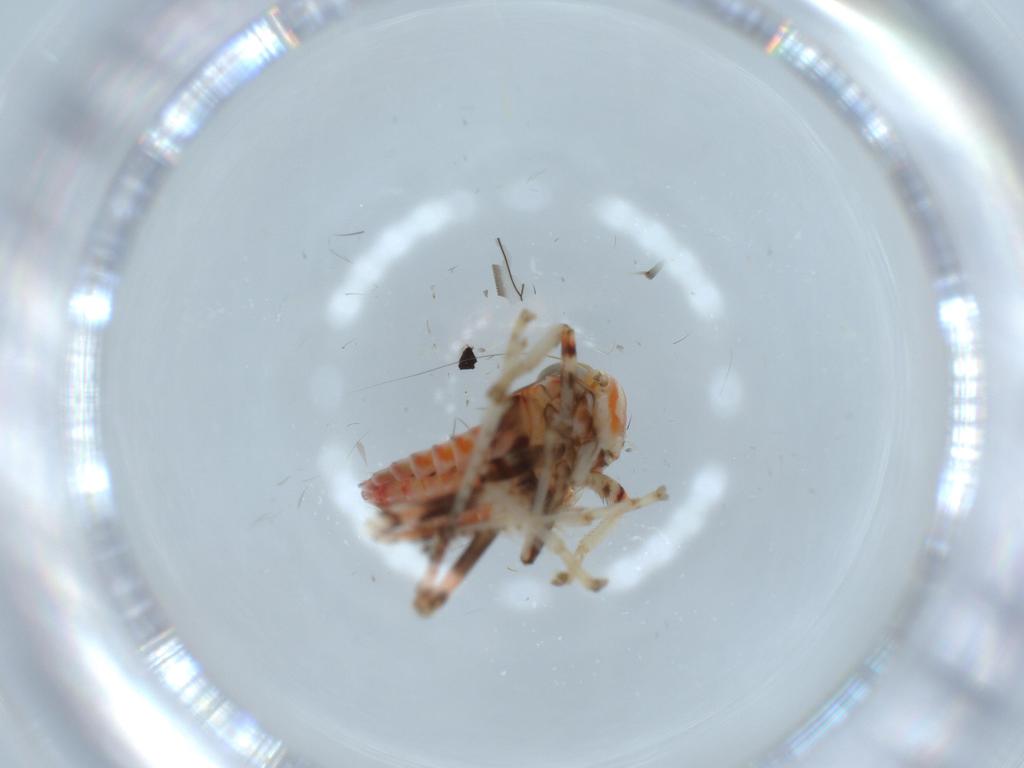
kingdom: Animalia
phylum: Arthropoda
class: Insecta
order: Hemiptera
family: Cicadellidae
